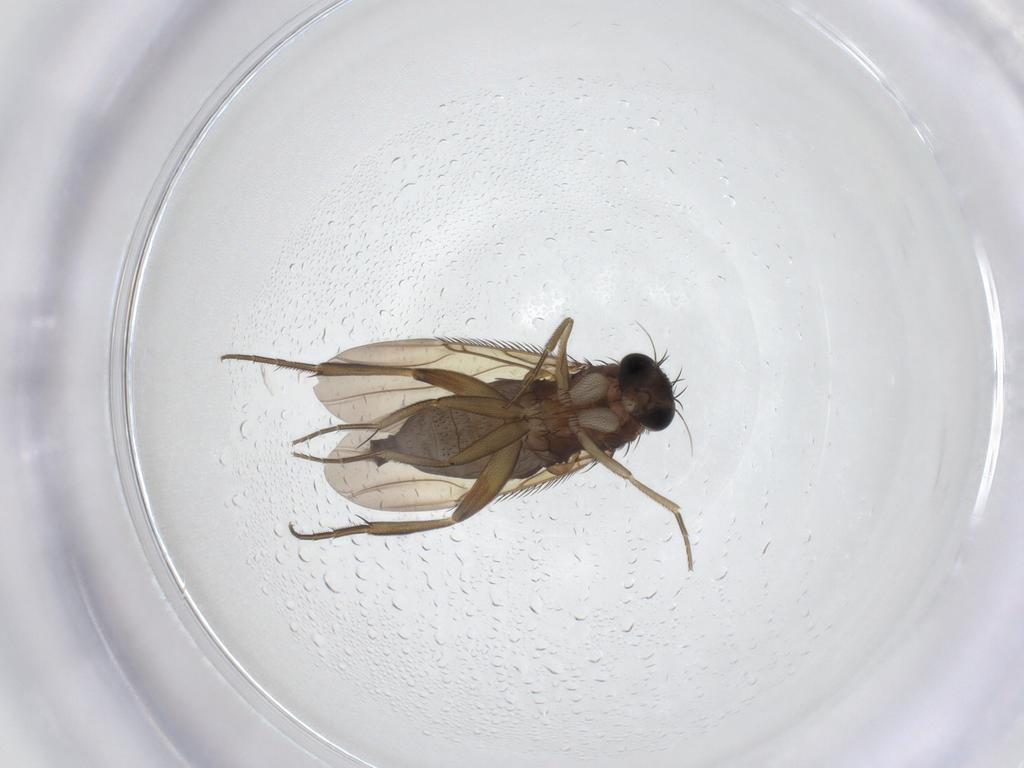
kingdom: Animalia
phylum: Arthropoda
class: Insecta
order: Diptera
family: Phoridae
